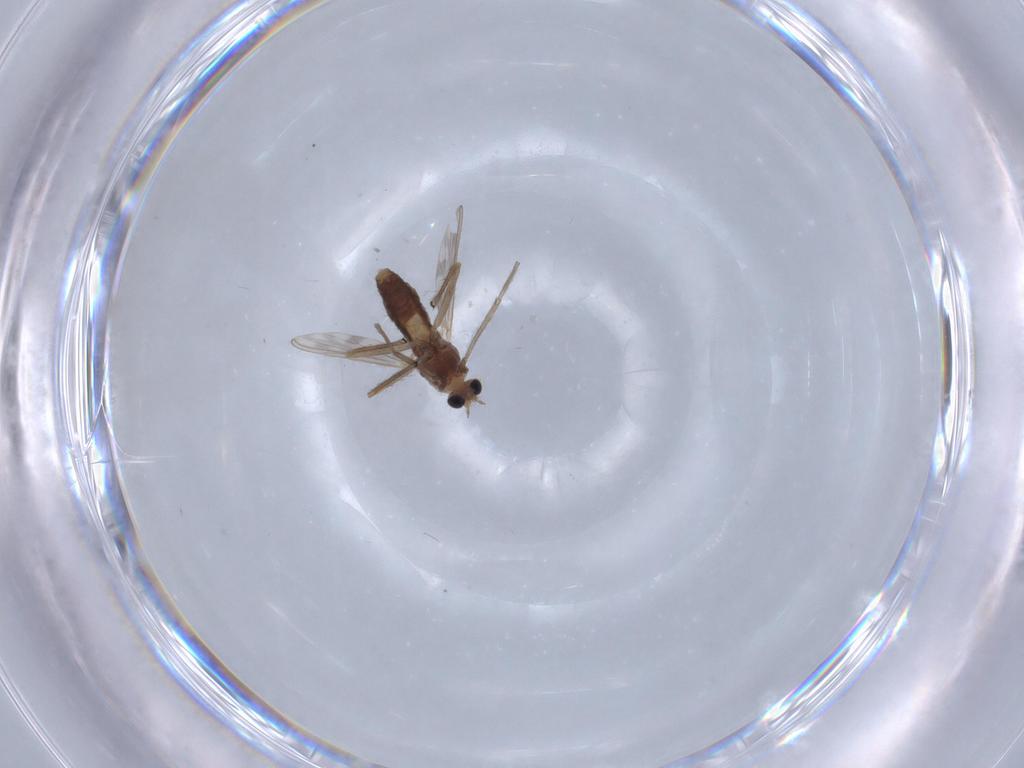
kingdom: Animalia
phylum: Arthropoda
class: Insecta
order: Diptera
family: Chironomidae
